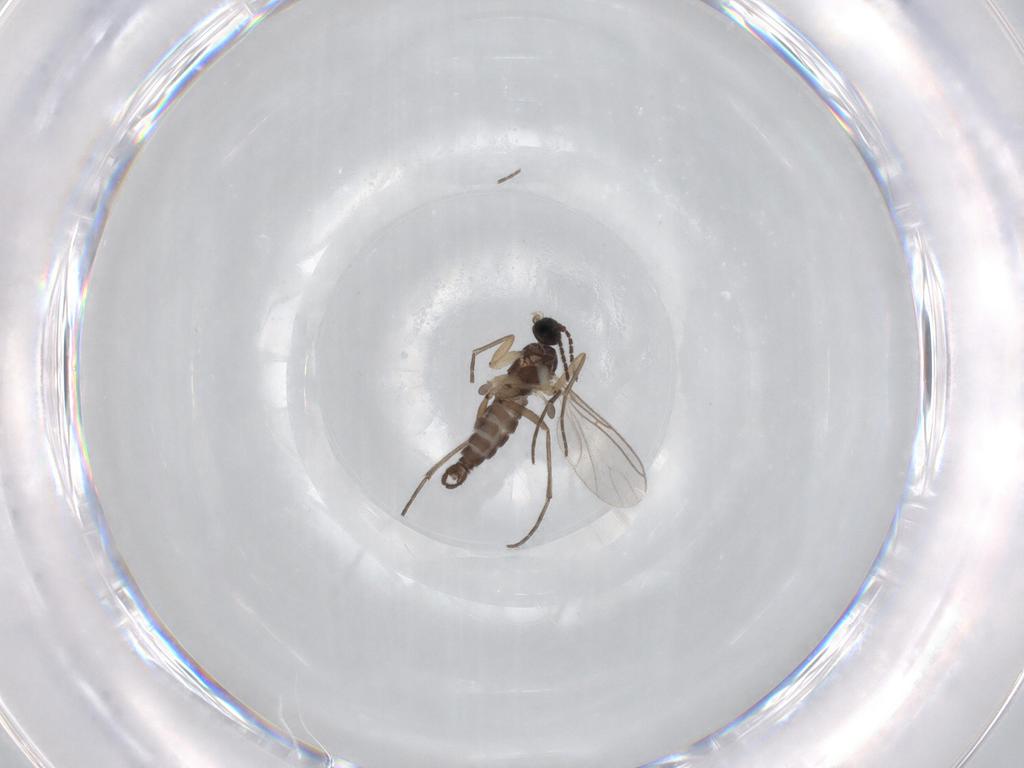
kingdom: Animalia
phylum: Arthropoda
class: Insecta
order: Diptera
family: Phoridae
